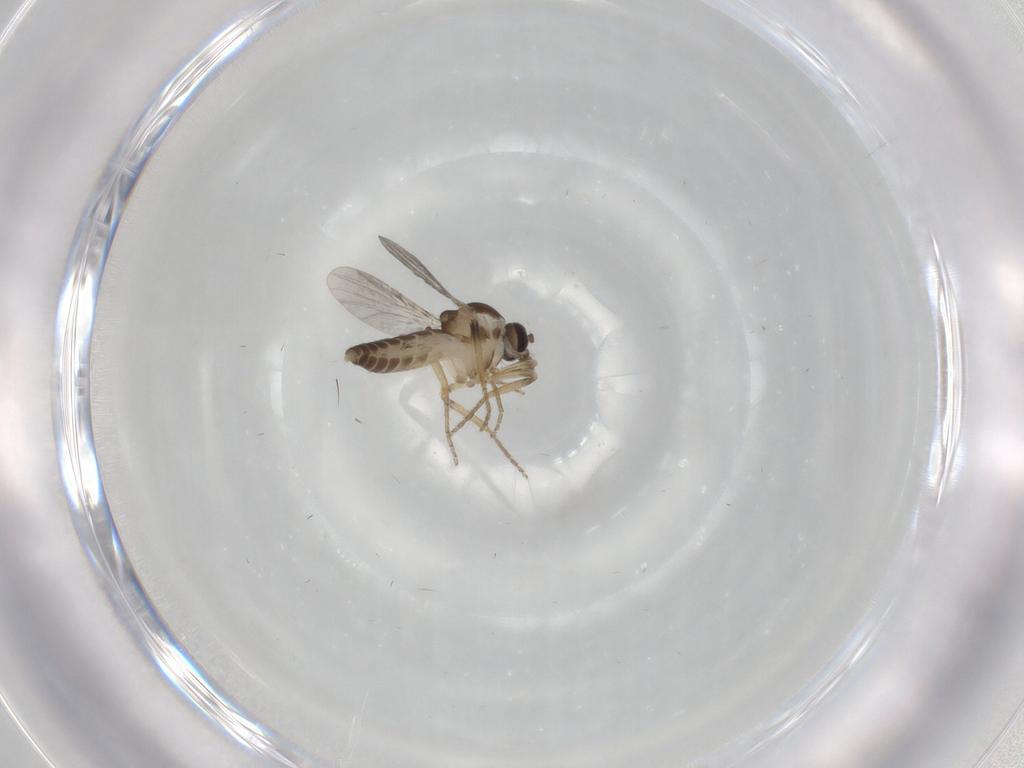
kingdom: Animalia
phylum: Arthropoda
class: Insecta
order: Diptera
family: Ceratopogonidae
